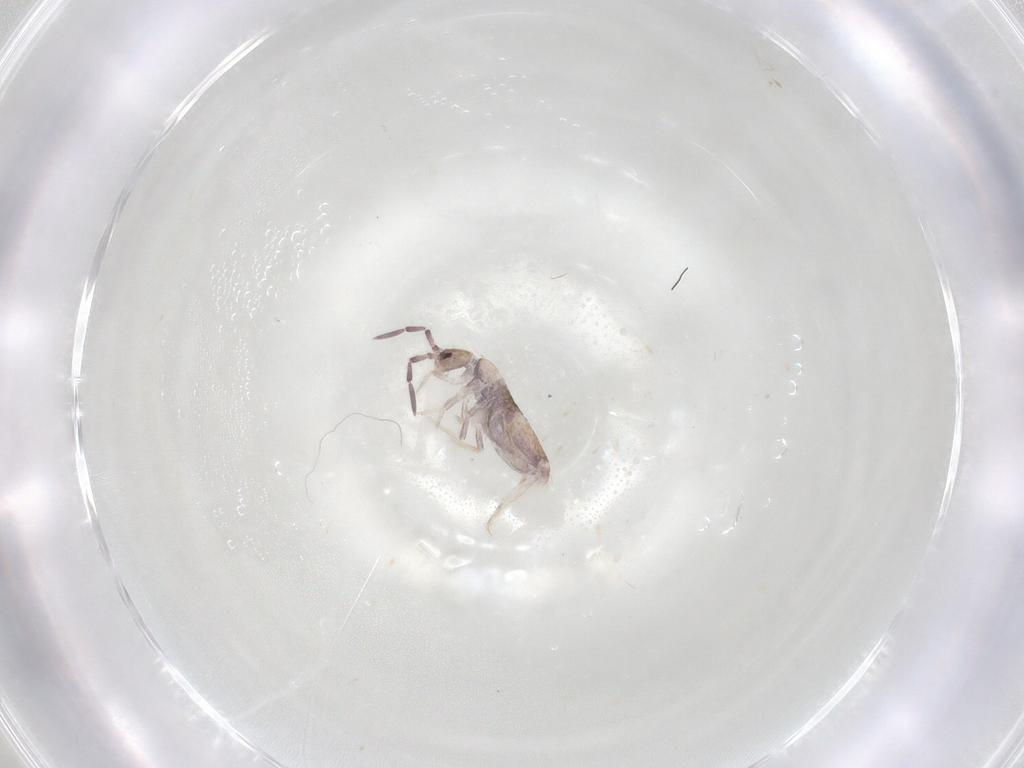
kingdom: Animalia
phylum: Arthropoda
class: Collembola
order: Poduromorpha
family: Hypogastruridae
